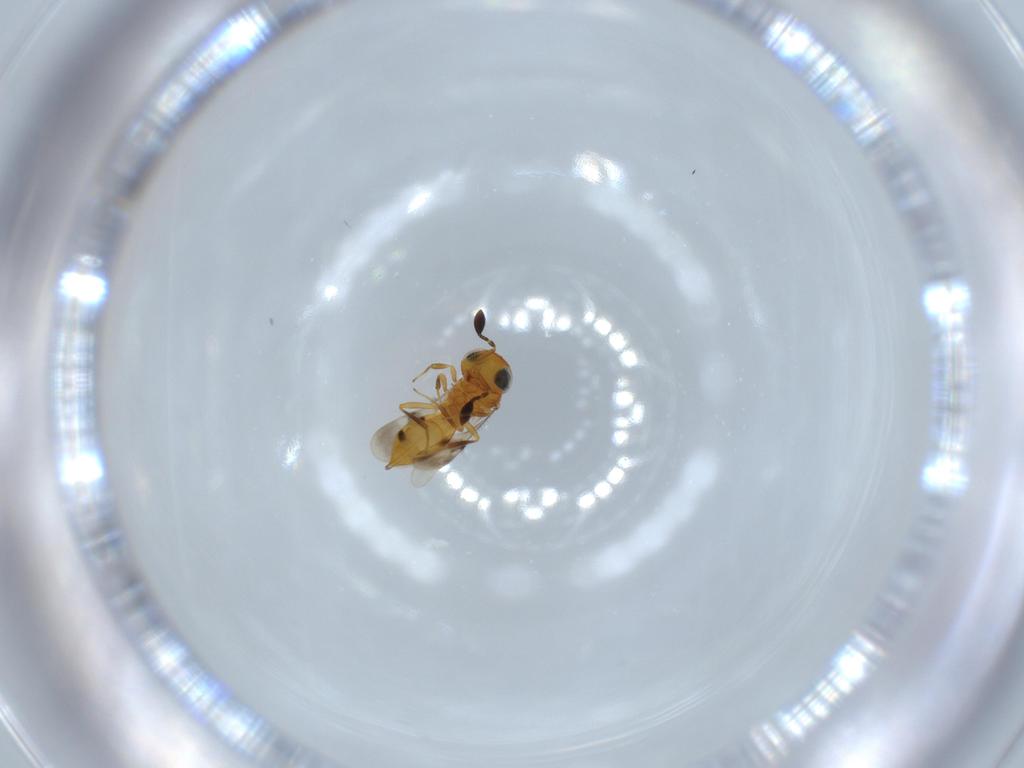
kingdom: Animalia
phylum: Arthropoda
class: Insecta
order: Hymenoptera
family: Scelionidae
